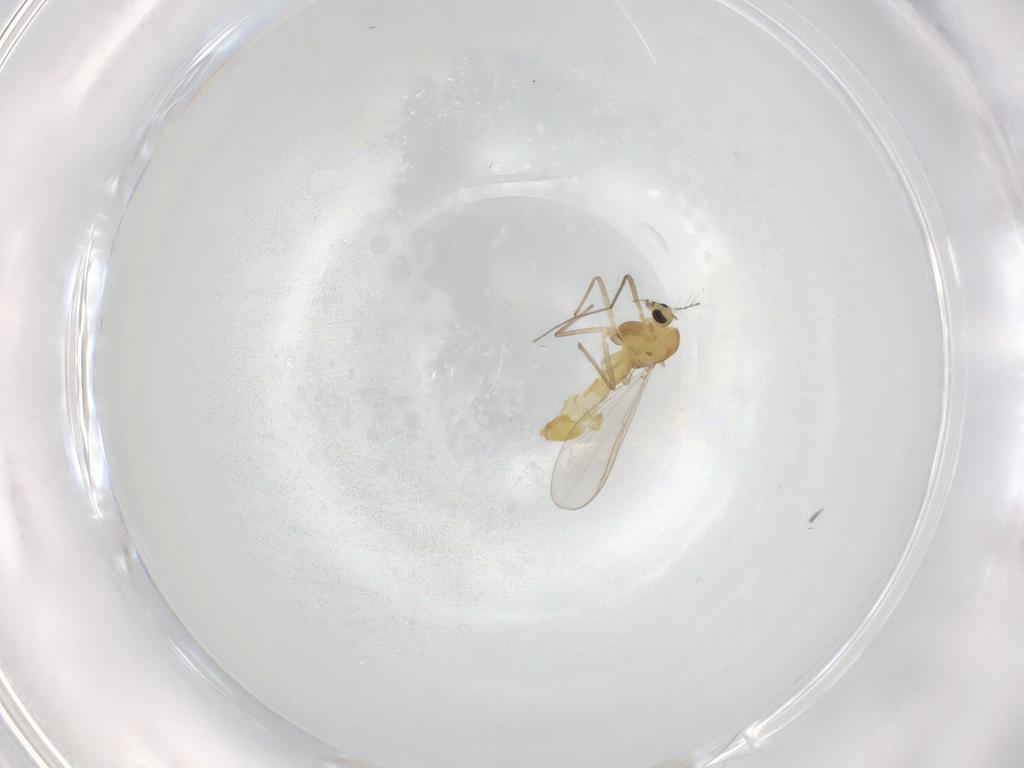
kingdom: Animalia
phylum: Arthropoda
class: Insecta
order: Diptera
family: Chironomidae
